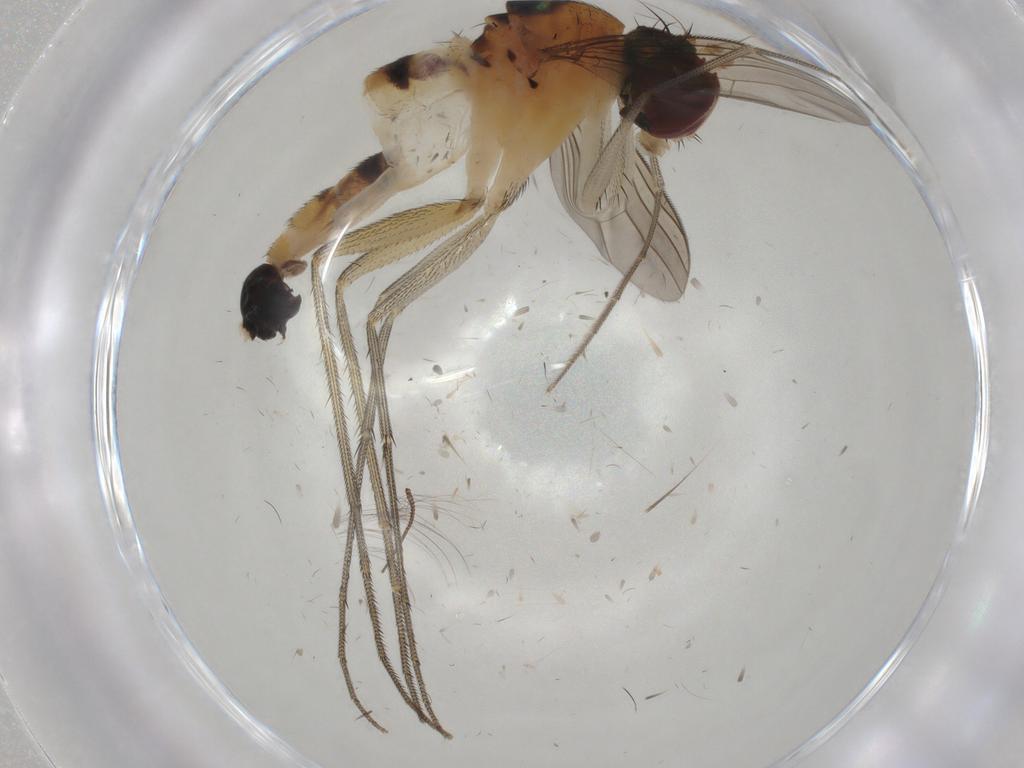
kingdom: Animalia
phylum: Arthropoda
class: Insecta
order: Diptera
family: Dolichopodidae
